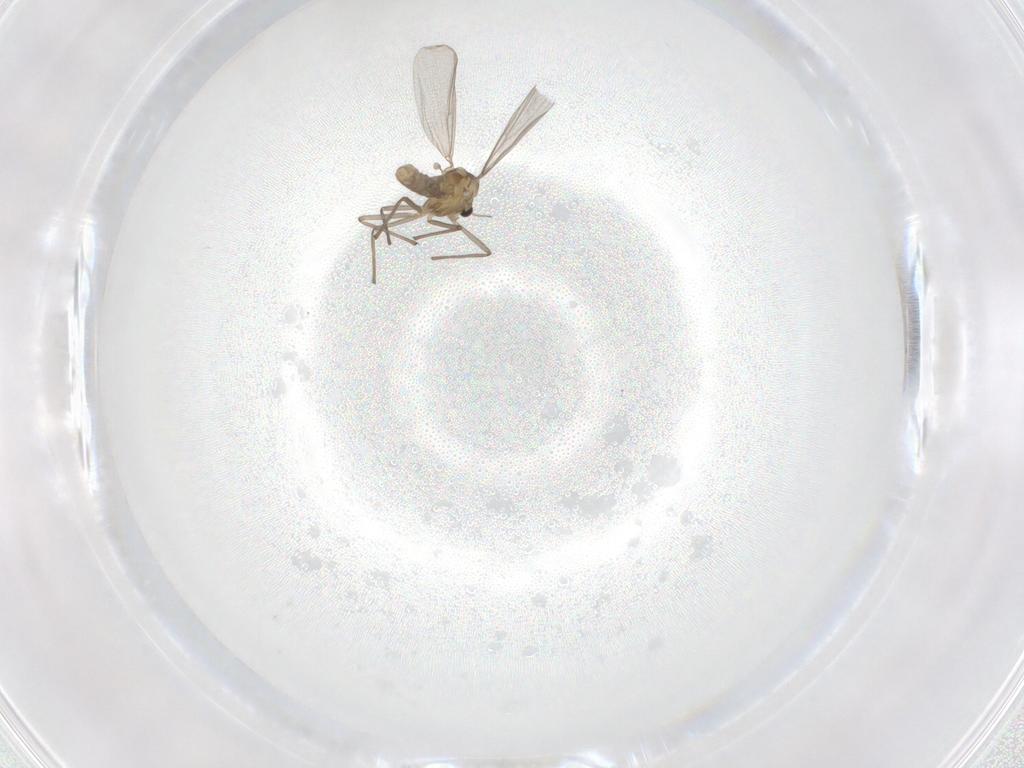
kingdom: Animalia
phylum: Arthropoda
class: Insecta
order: Diptera
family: Chironomidae
